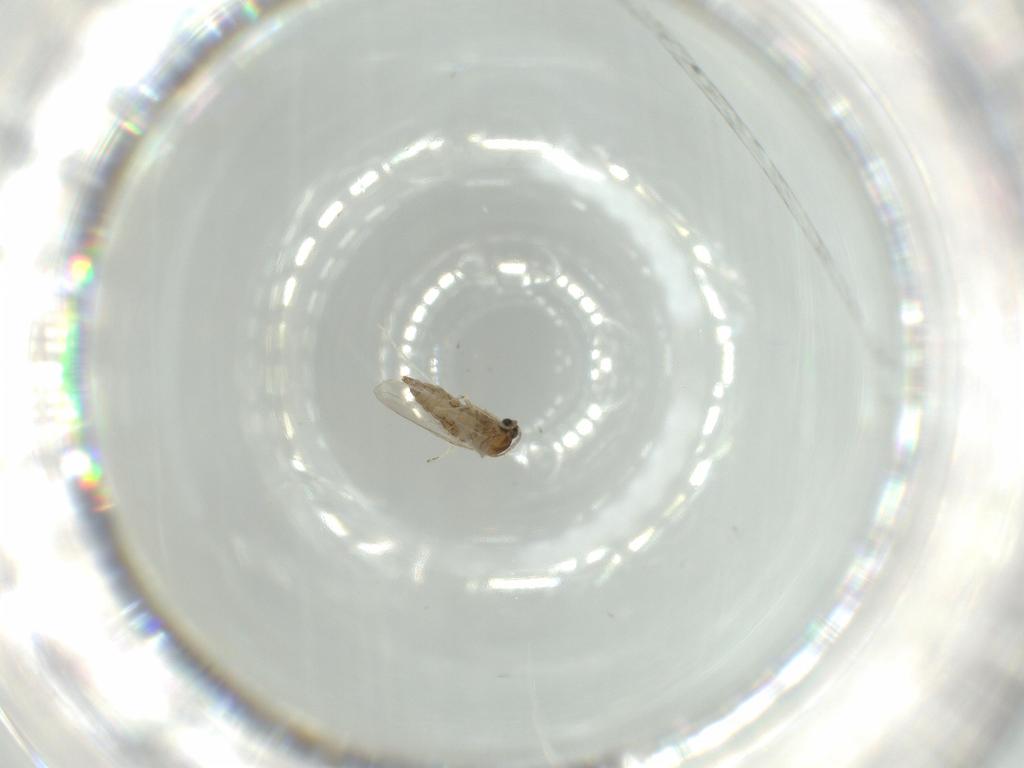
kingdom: Animalia
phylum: Arthropoda
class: Insecta
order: Diptera
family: Cecidomyiidae
